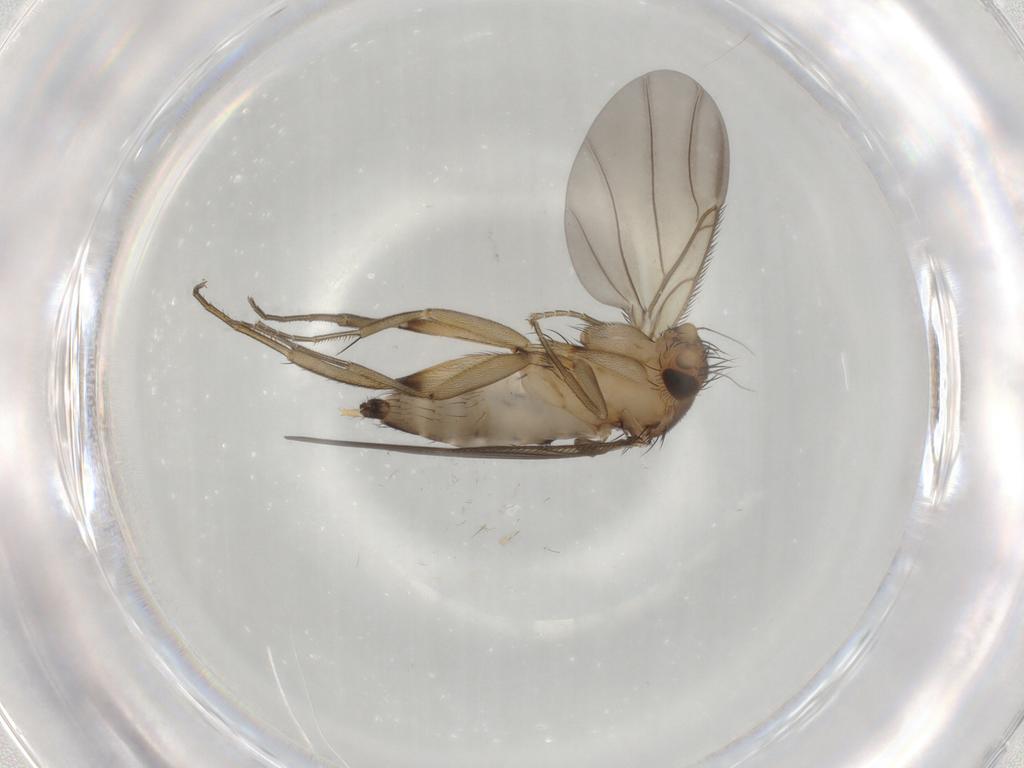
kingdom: Animalia
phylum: Arthropoda
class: Insecta
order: Diptera
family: Phoridae
